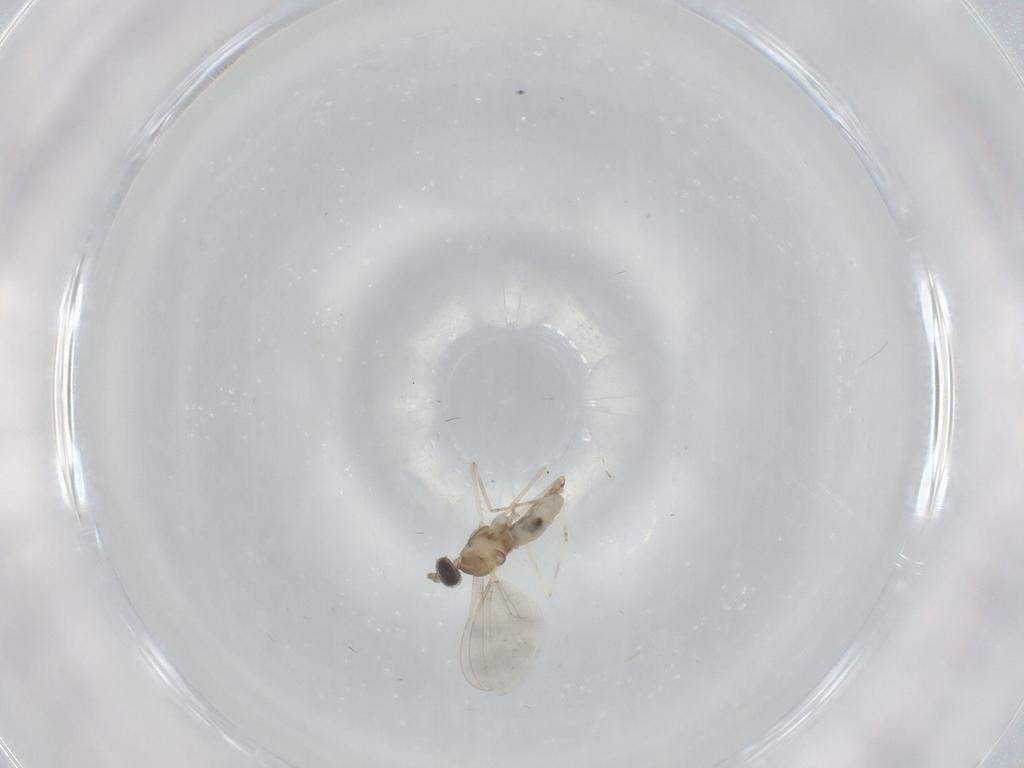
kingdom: Animalia
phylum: Arthropoda
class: Insecta
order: Diptera
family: Cecidomyiidae
